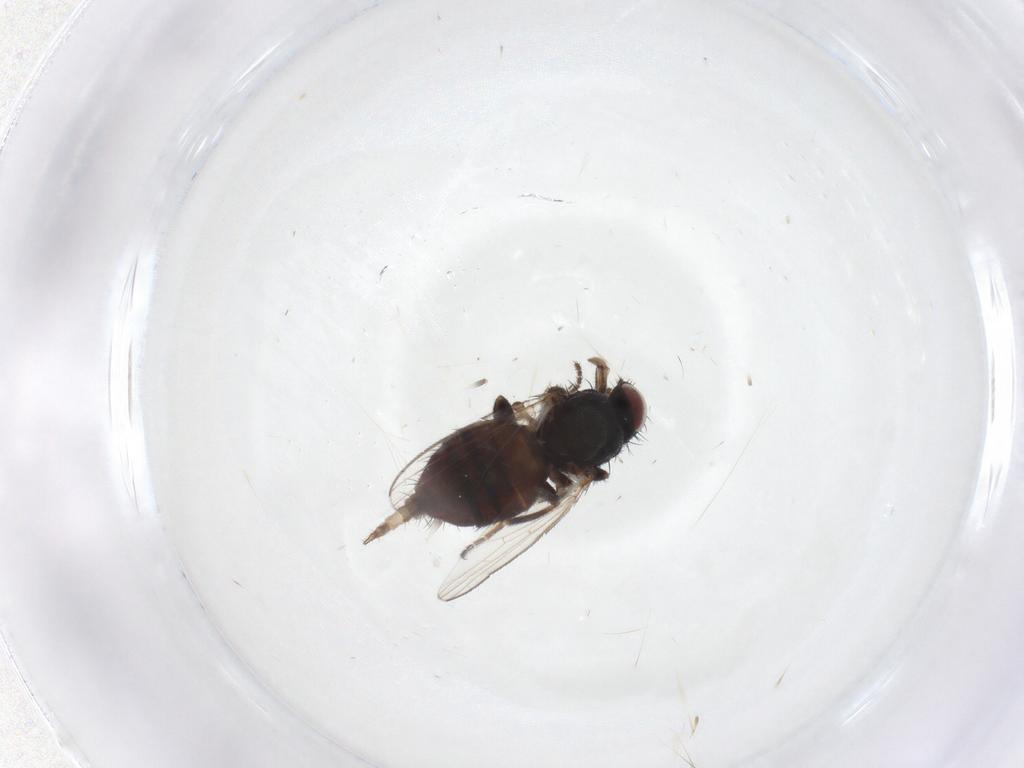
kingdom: Animalia
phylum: Arthropoda
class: Insecta
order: Diptera
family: Milichiidae
